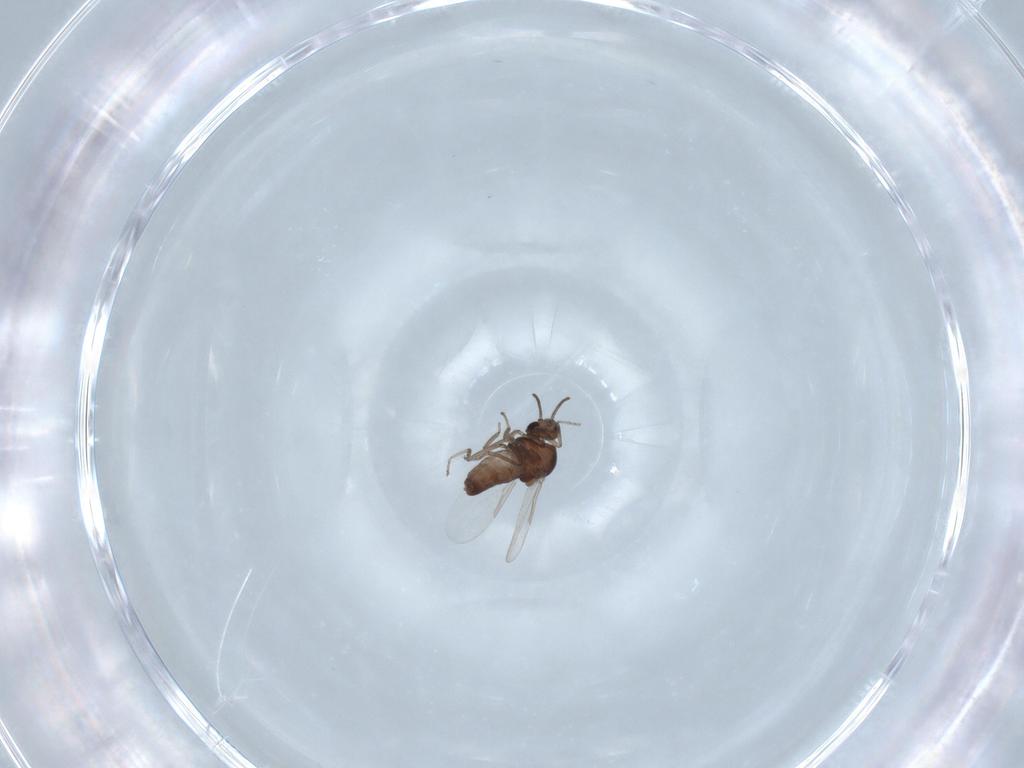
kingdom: Animalia
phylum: Arthropoda
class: Insecta
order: Diptera
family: Ceratopogonidae
